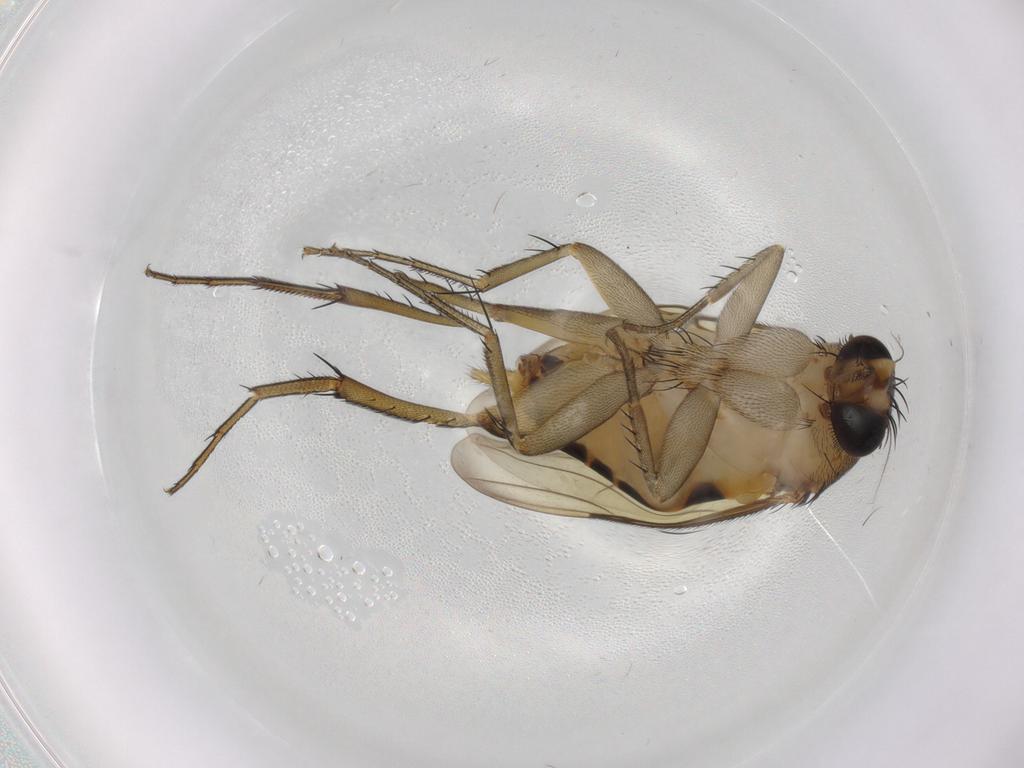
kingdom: Animalia
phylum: Arthropoda
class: Insecta
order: Diptera
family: Phoridae
